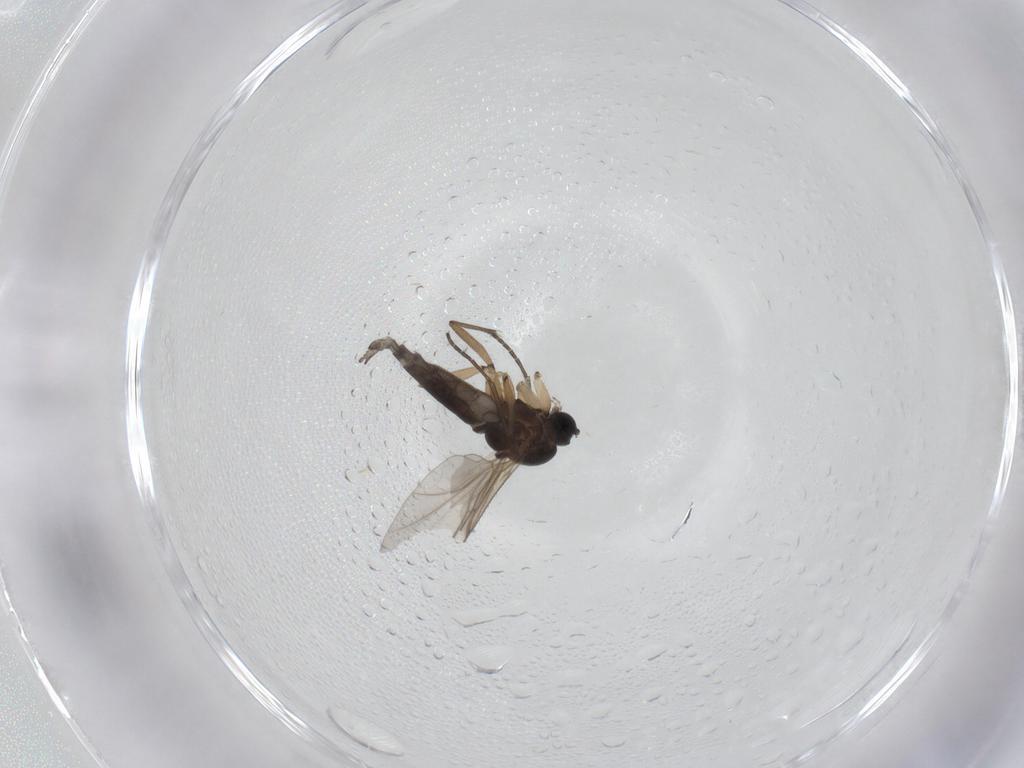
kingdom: Animalia
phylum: Arthropoda
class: Insecta
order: Diptera
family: Sciaridae
